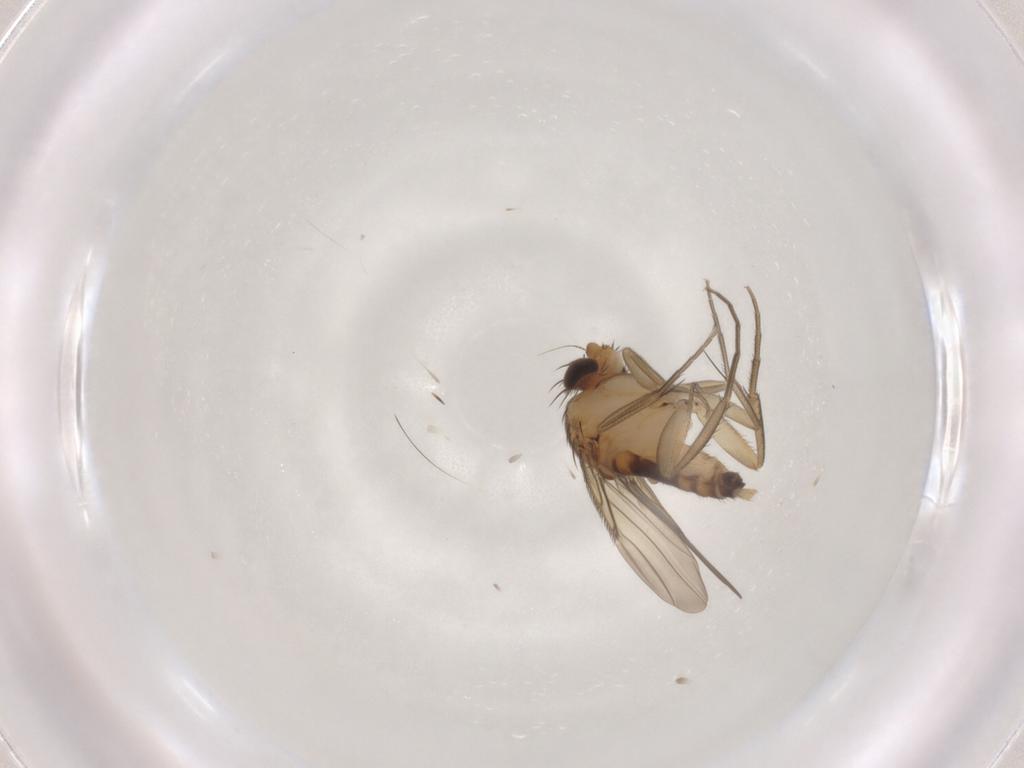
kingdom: Animalia
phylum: Arthropoda
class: Insecta
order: Diptera
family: Phoridae
